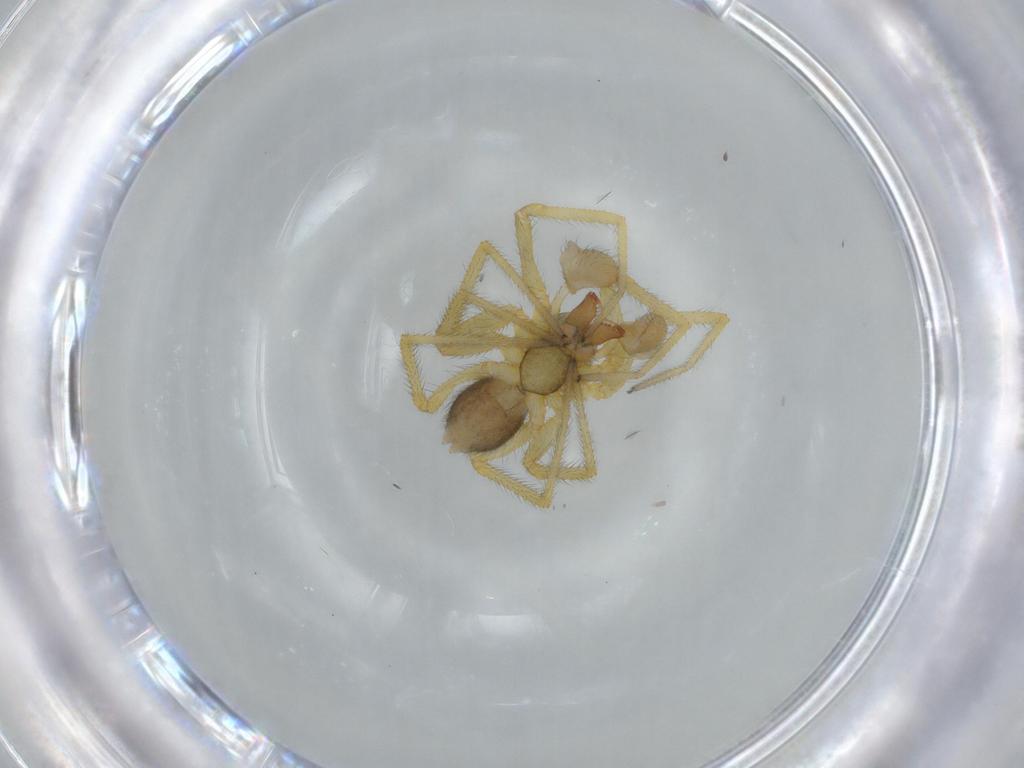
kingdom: Animalia
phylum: Arthropoda
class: Arachnida
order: Araneae
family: Linyphiidae
